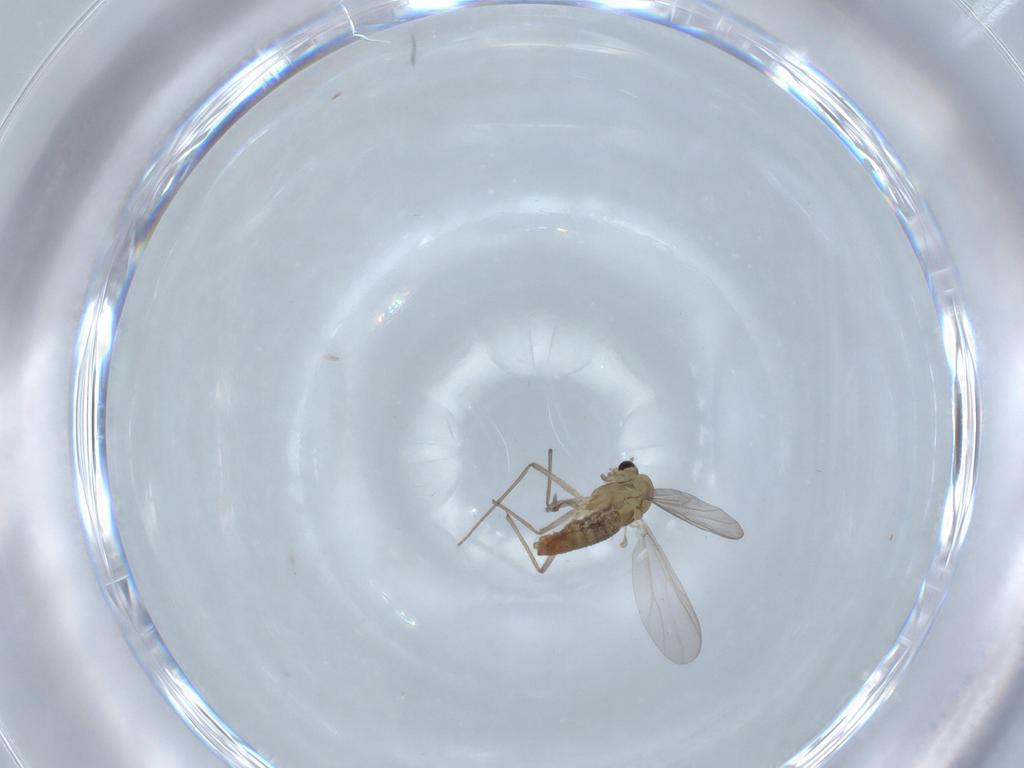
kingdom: Animalia
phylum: Arthropoda
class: Insecta
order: Diptera
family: Chironomidae
